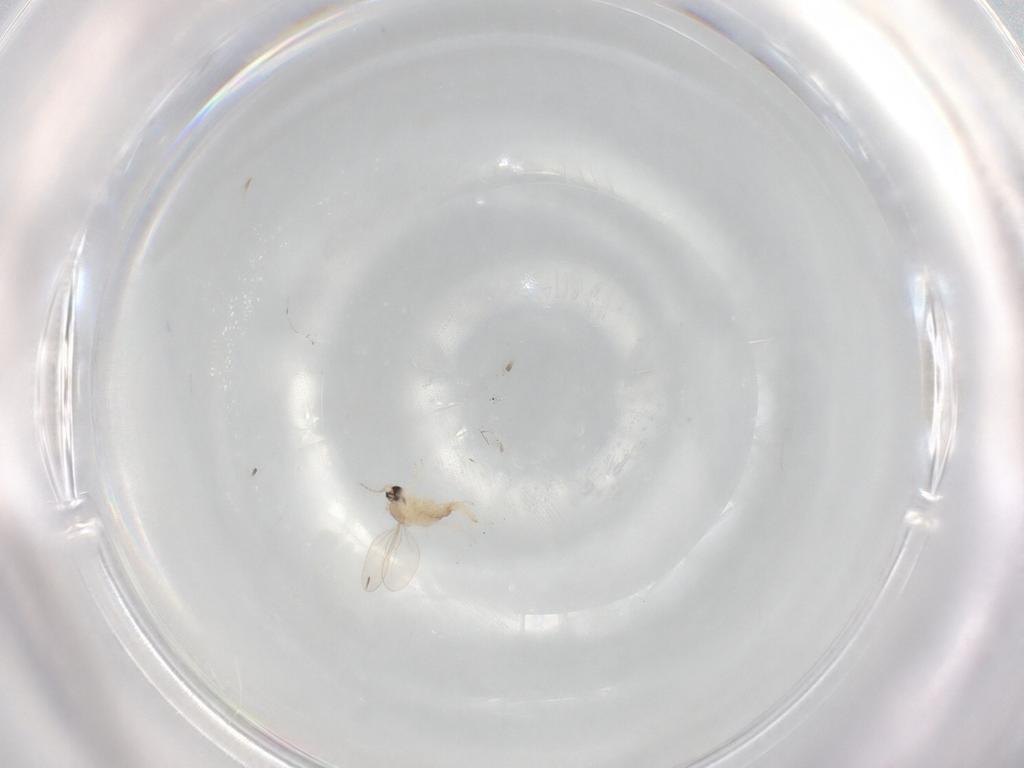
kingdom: Animalia
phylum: Arthropoda
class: Insecta
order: Diptera
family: Cecidomyiidae
